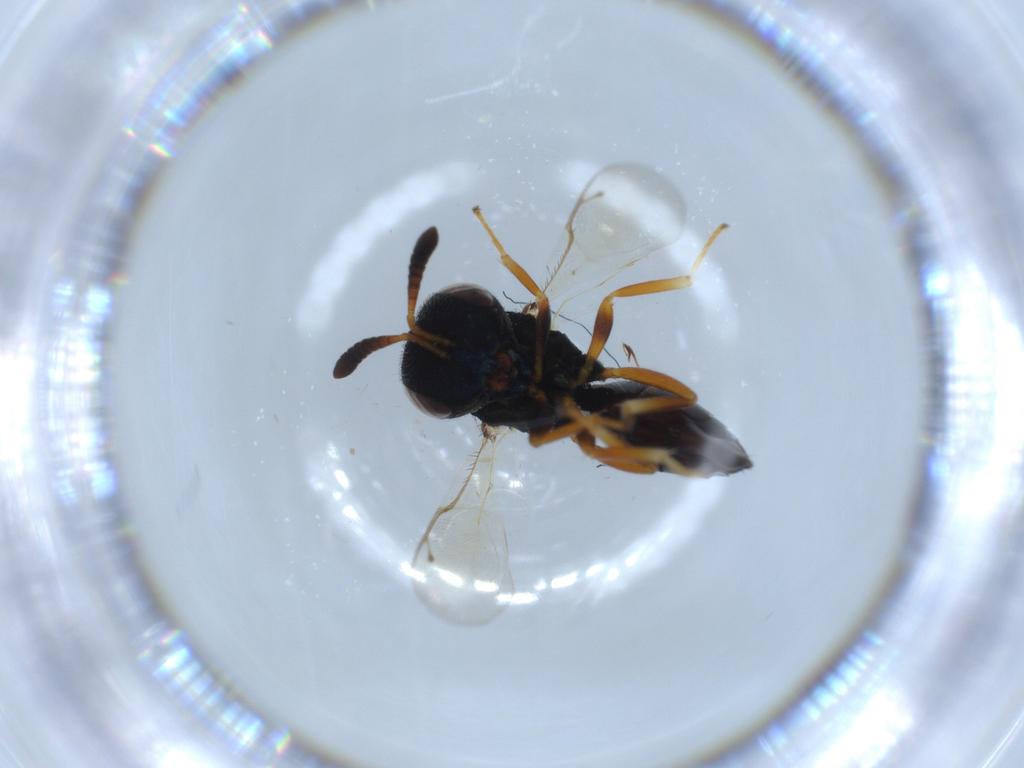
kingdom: Animalia
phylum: Arthropoda
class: Insecta
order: Hymenoptera
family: Agaonidae
